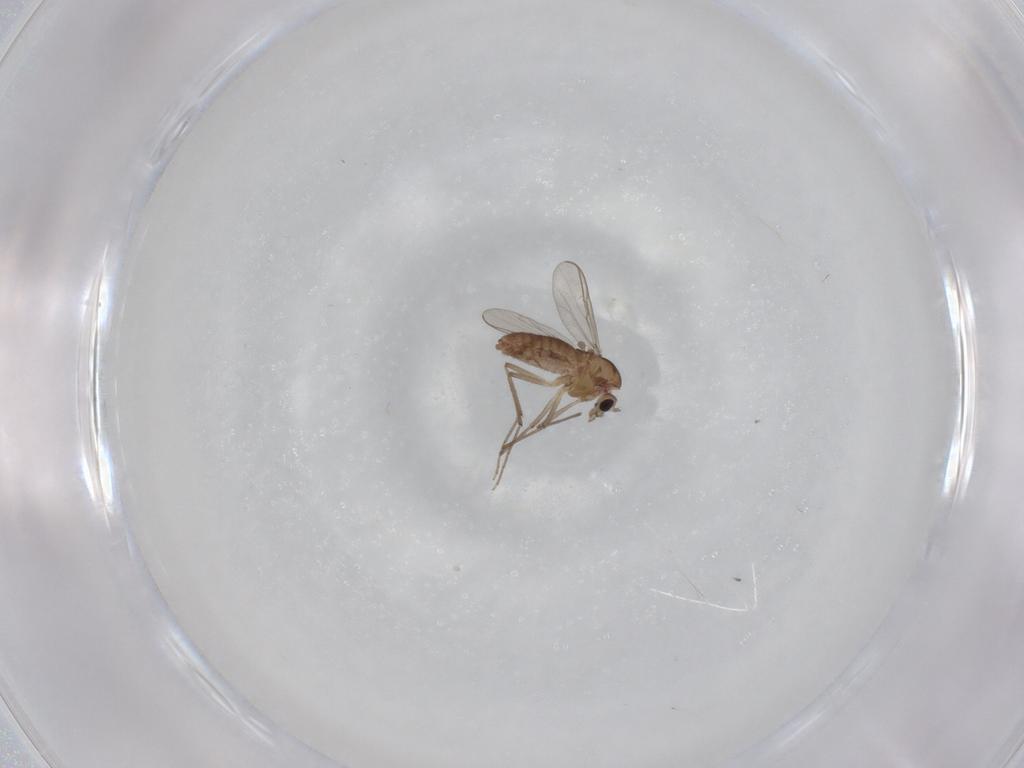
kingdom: Animalia
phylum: Arthropoda
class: Insecta
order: Diptera
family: Chironomidae
